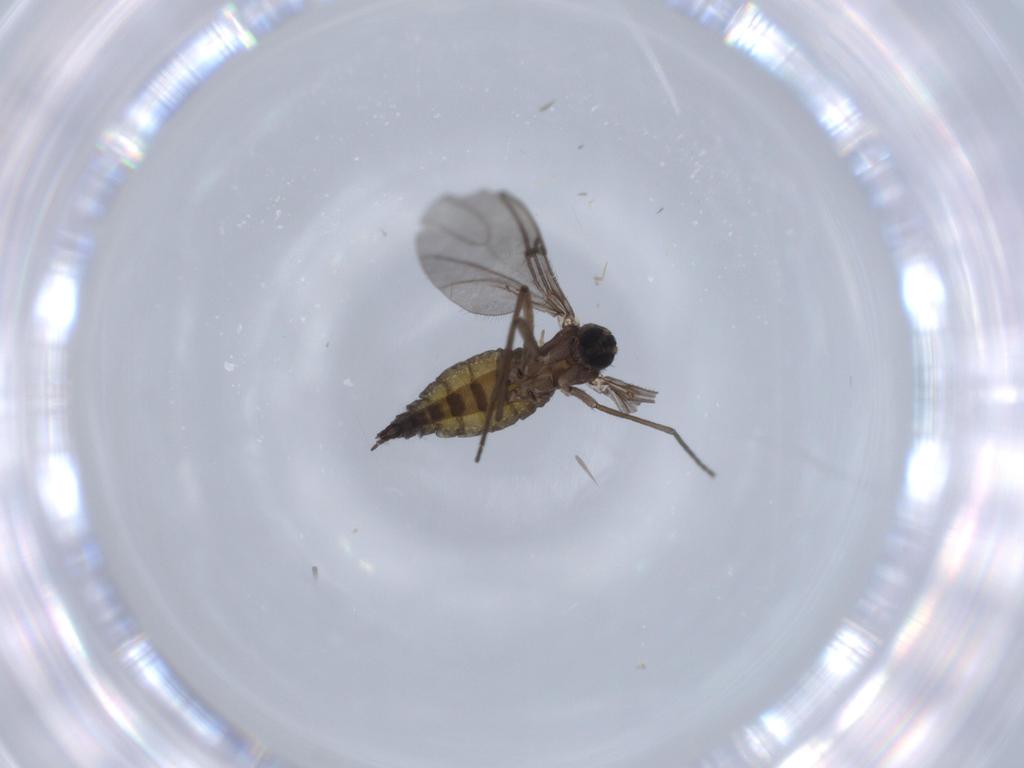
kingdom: Animalia
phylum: Arthropoda
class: Insecta
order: Diptera
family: Sciaridae
